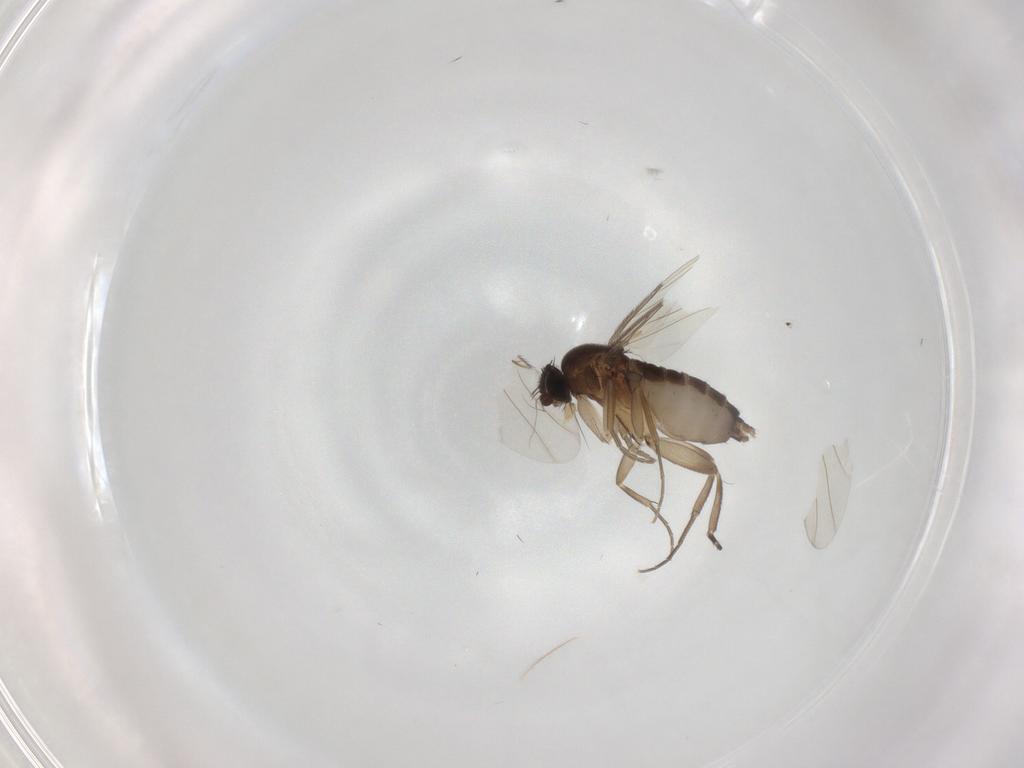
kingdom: Animalia
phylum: Arthropoda
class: Insecta
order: Diptera
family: Phoridae
